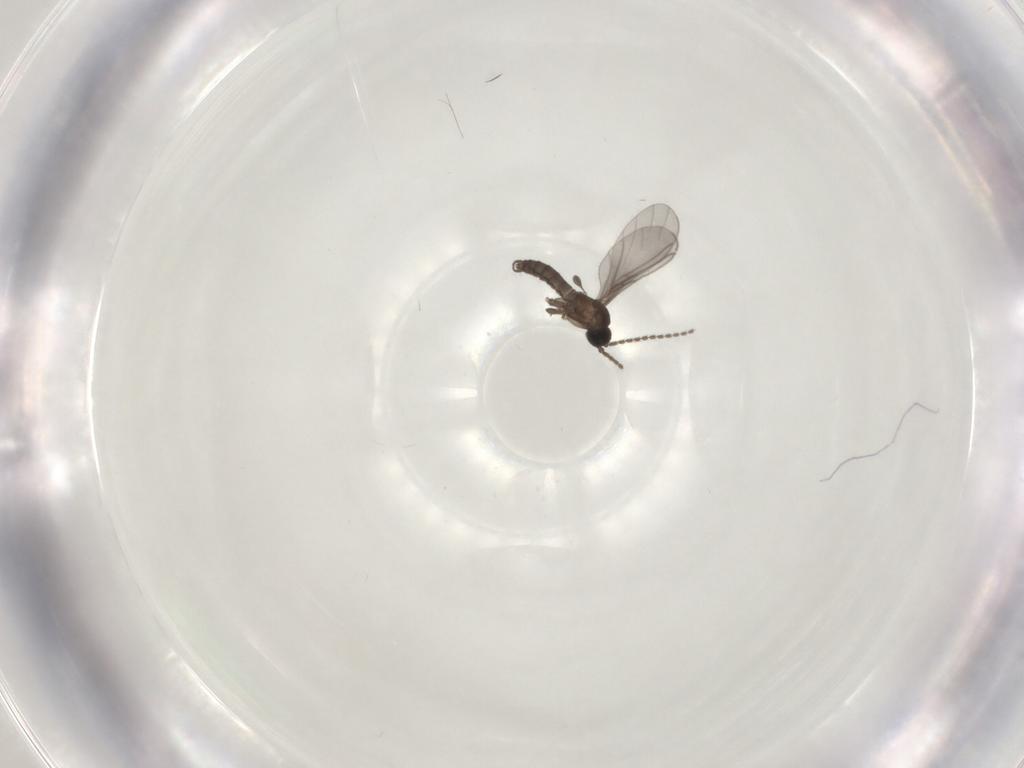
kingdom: Animalia
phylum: Arthropoda
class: Insecta
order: Diptera
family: Sciaridae
